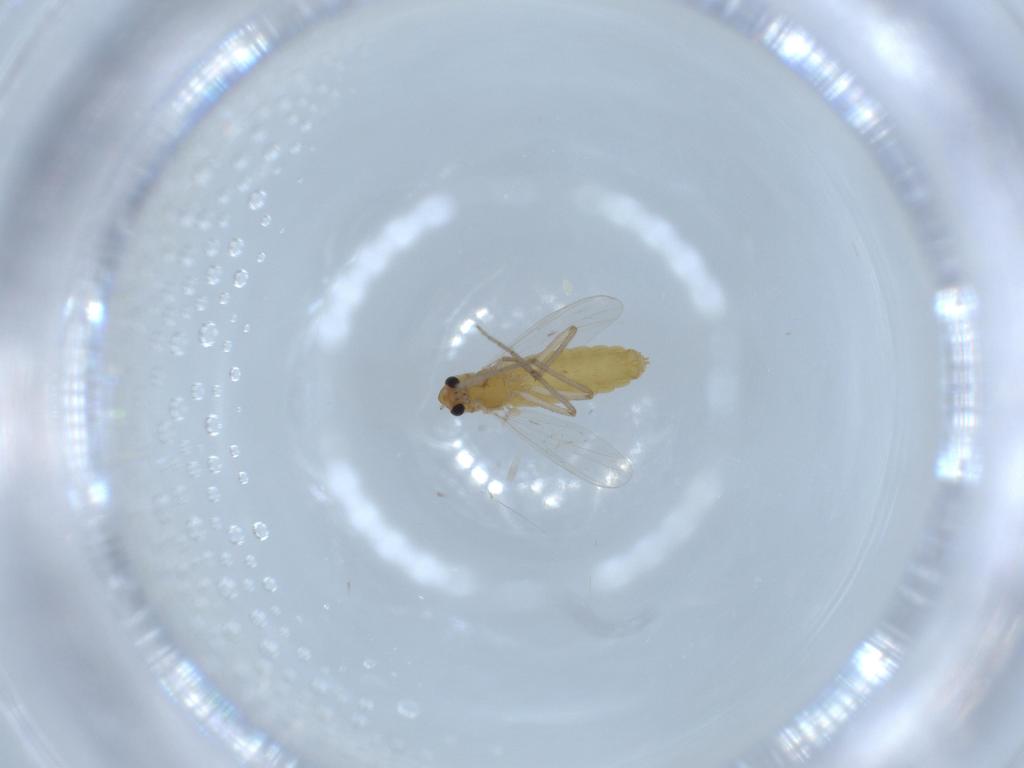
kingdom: Animalia
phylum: Arthropoda
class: Insecta
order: Diptera
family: Chironomidae
